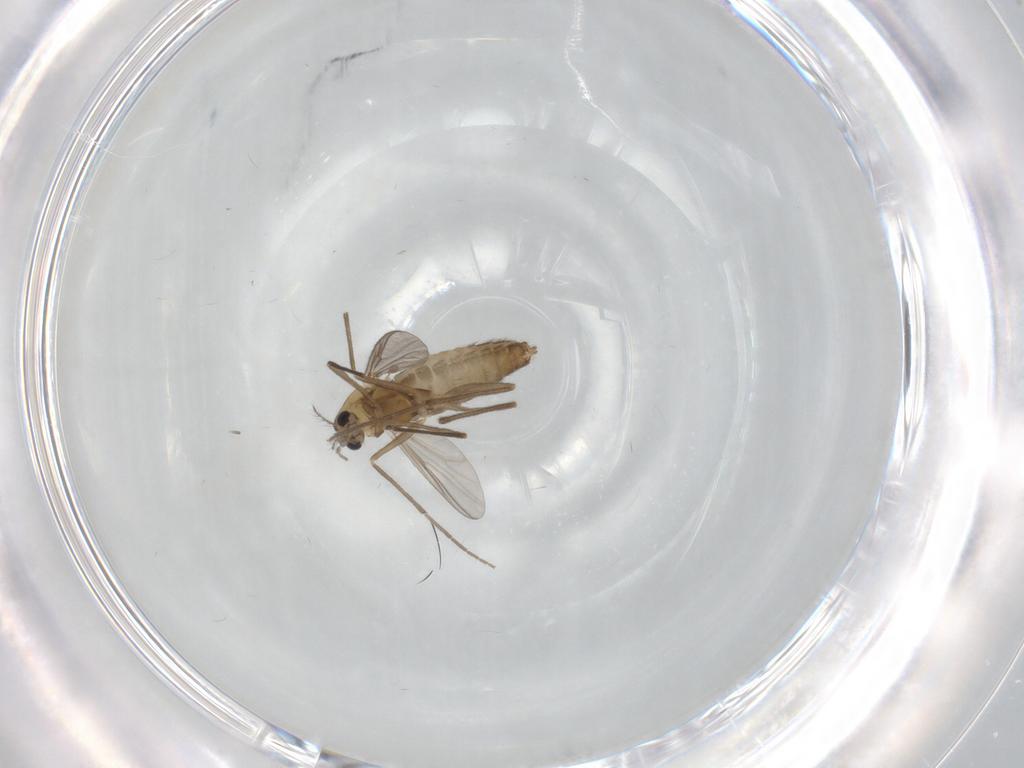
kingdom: Animalia
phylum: Arthropoda
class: Insecta
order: Diptera
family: Chironomidae
